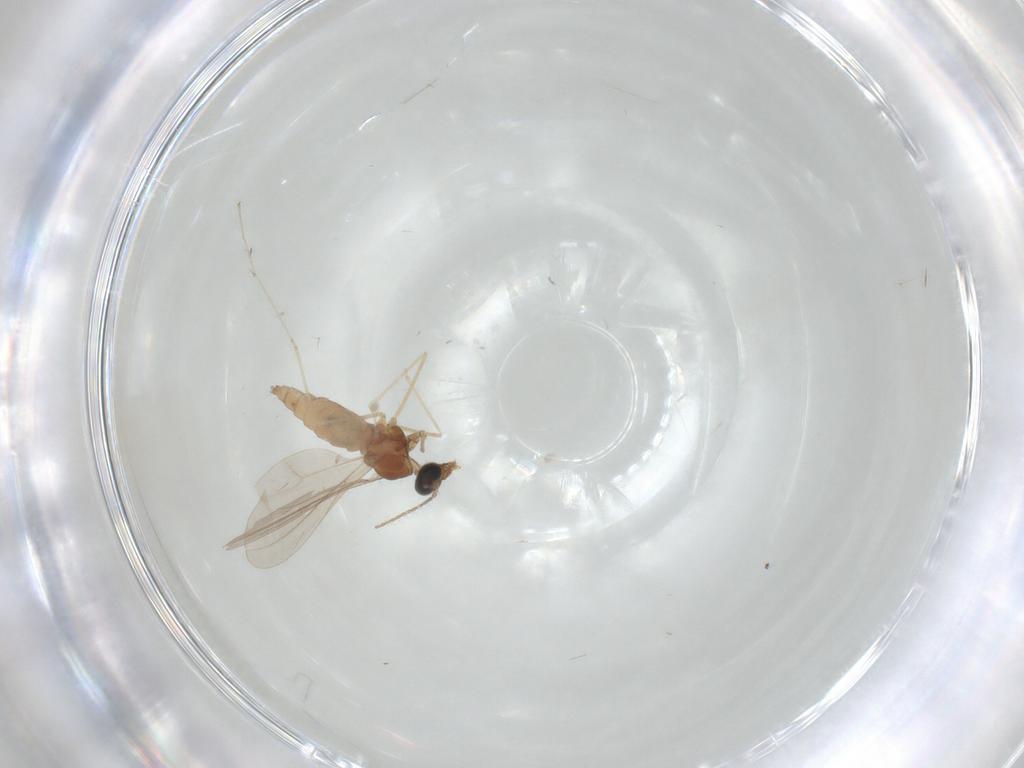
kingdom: Animalia
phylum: Arthropoda
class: Insecta
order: Diptera
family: Cecidomyiidae
